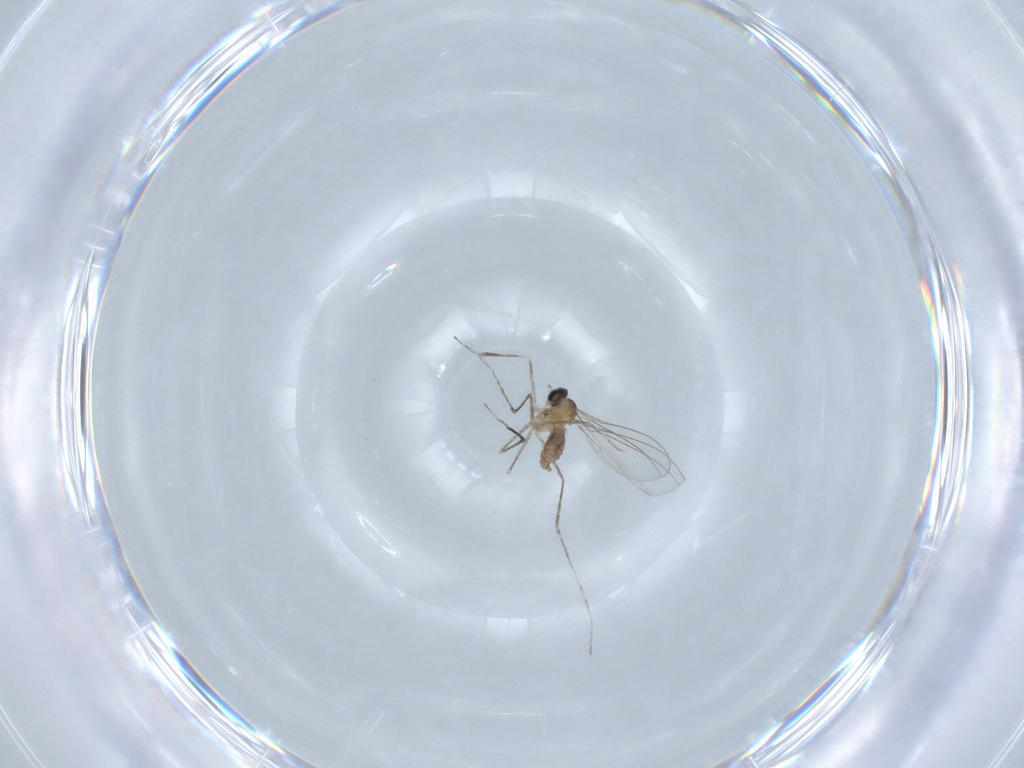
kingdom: Animalia
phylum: Arthropoda
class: Insecta
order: Diptera
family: Cecidomyiidae
